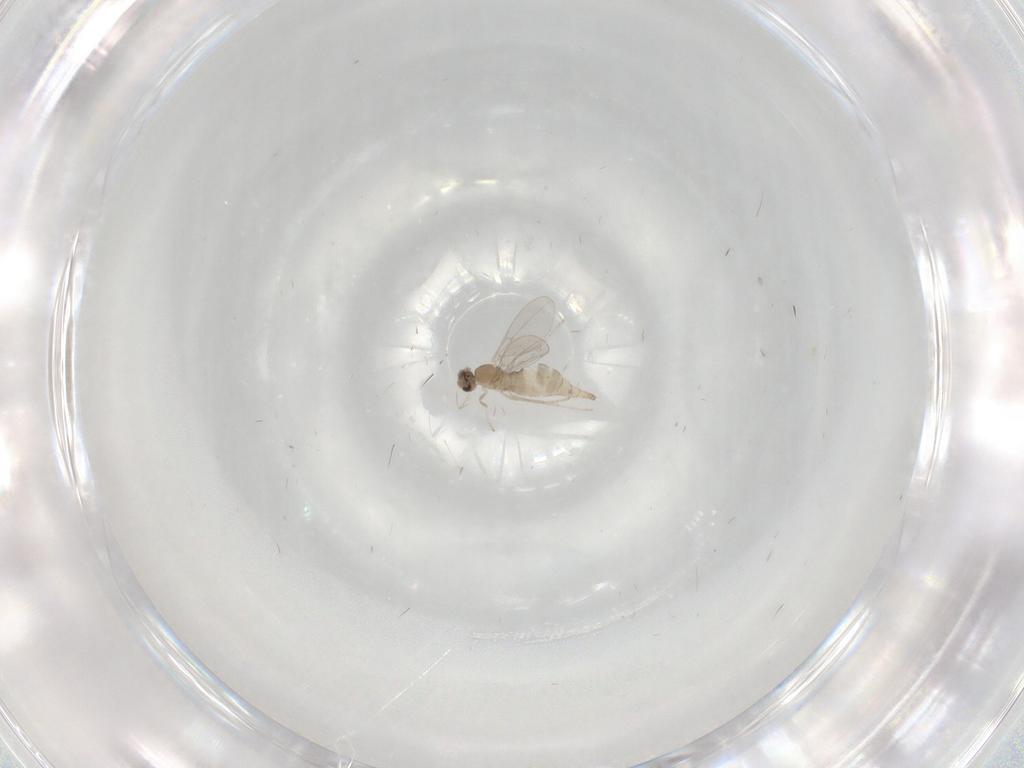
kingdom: Animalia
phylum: Arthropoda
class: Insecta
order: Diptera
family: Cecidomyiidae
